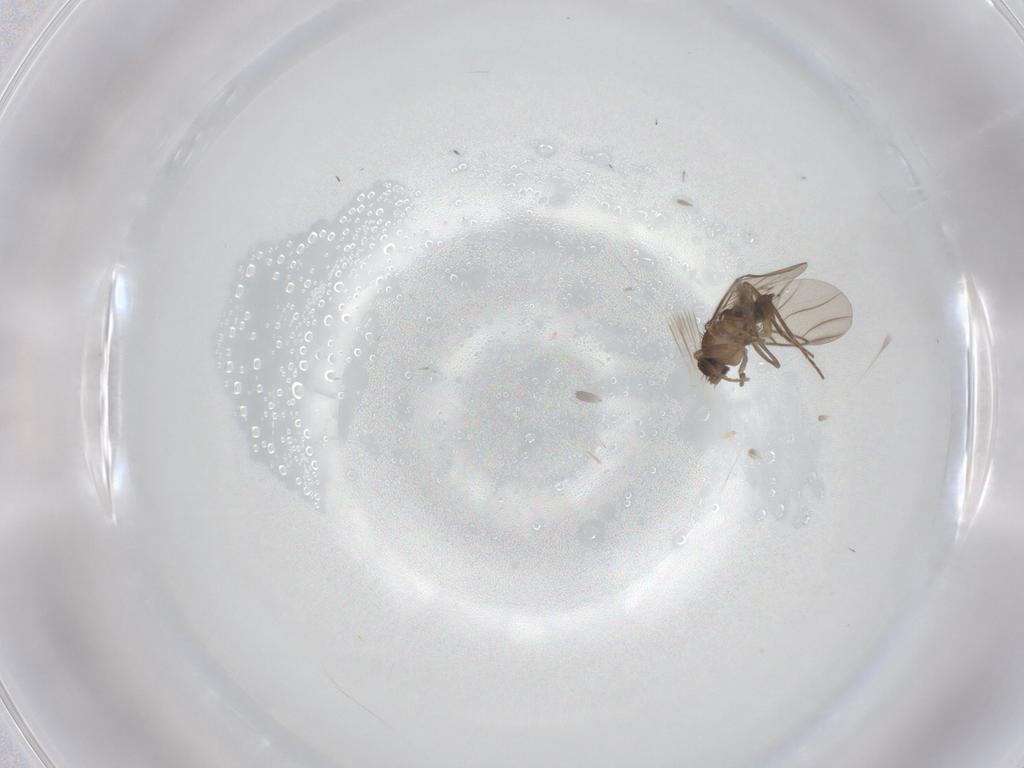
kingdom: Animalia
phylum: Arthropoda
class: Insecta
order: Diptera
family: Phoridae
